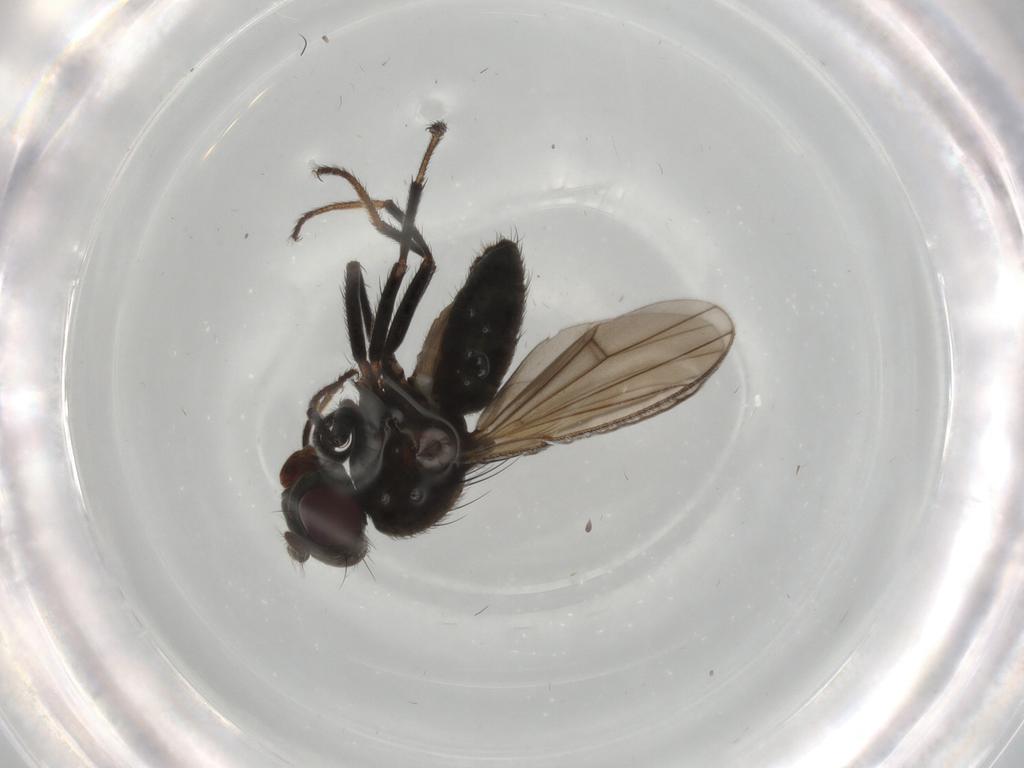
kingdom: Animalia
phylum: Arthropoda
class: Insecta
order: Diptera
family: Ephydridae
